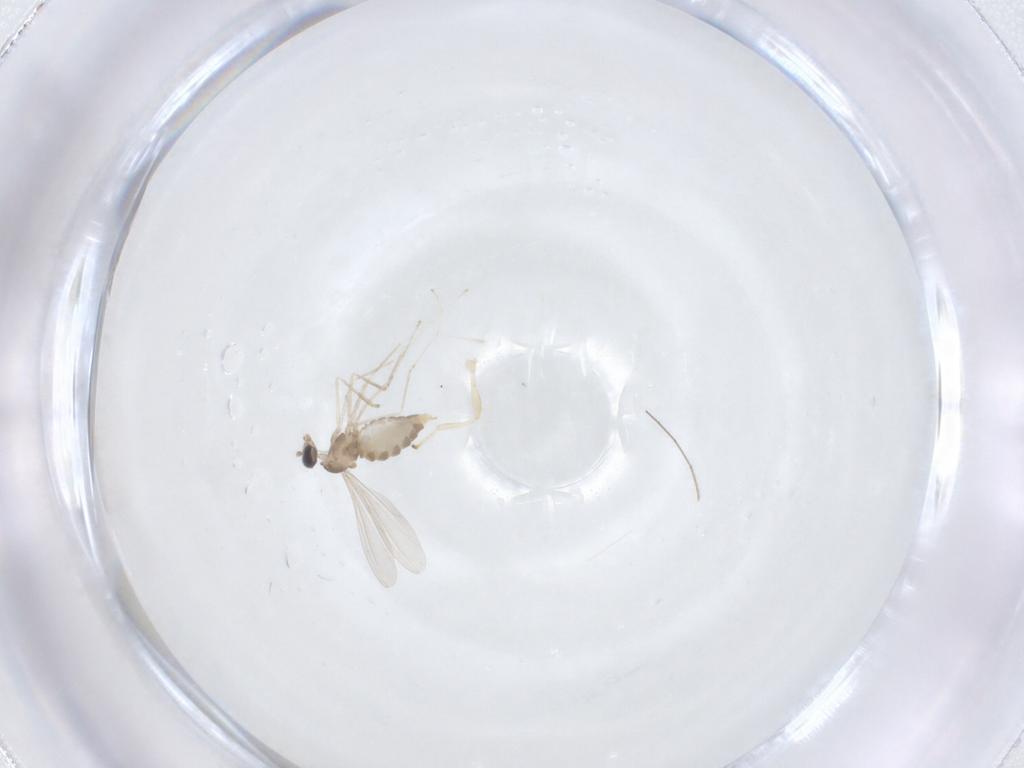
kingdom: Animalia
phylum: Arthropoda
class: Insecta
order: Diptera
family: Cecidomyiidae
